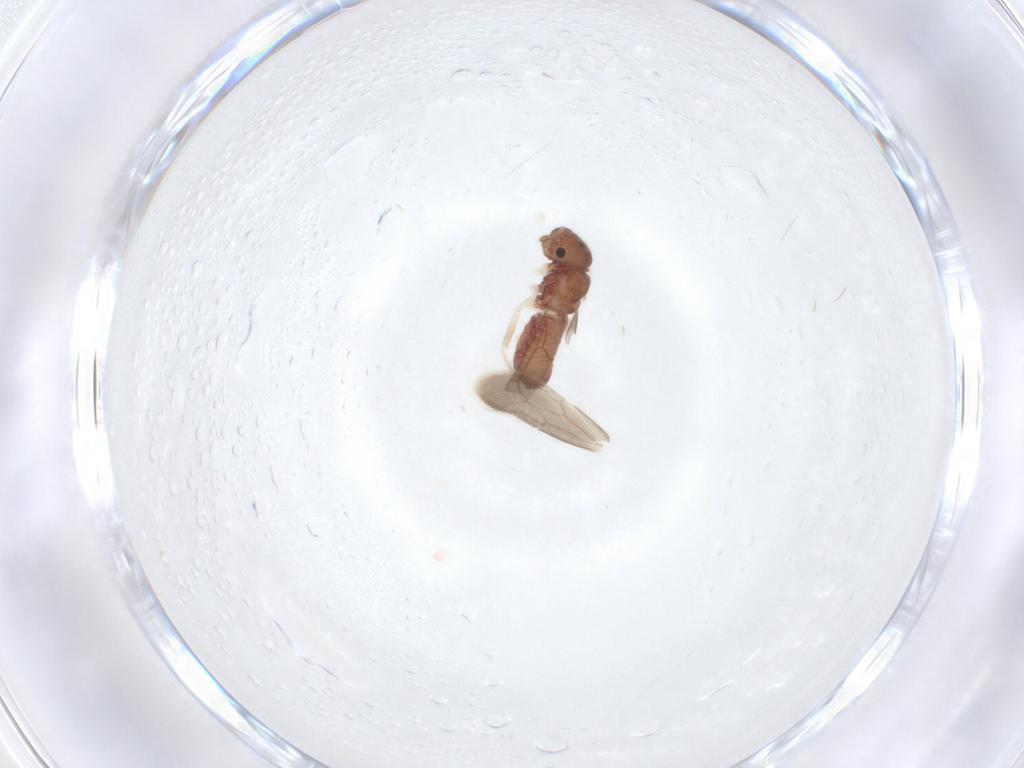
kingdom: Animalia
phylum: Arthropoda
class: Insecta
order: Psocodea
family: Archipsocidae
